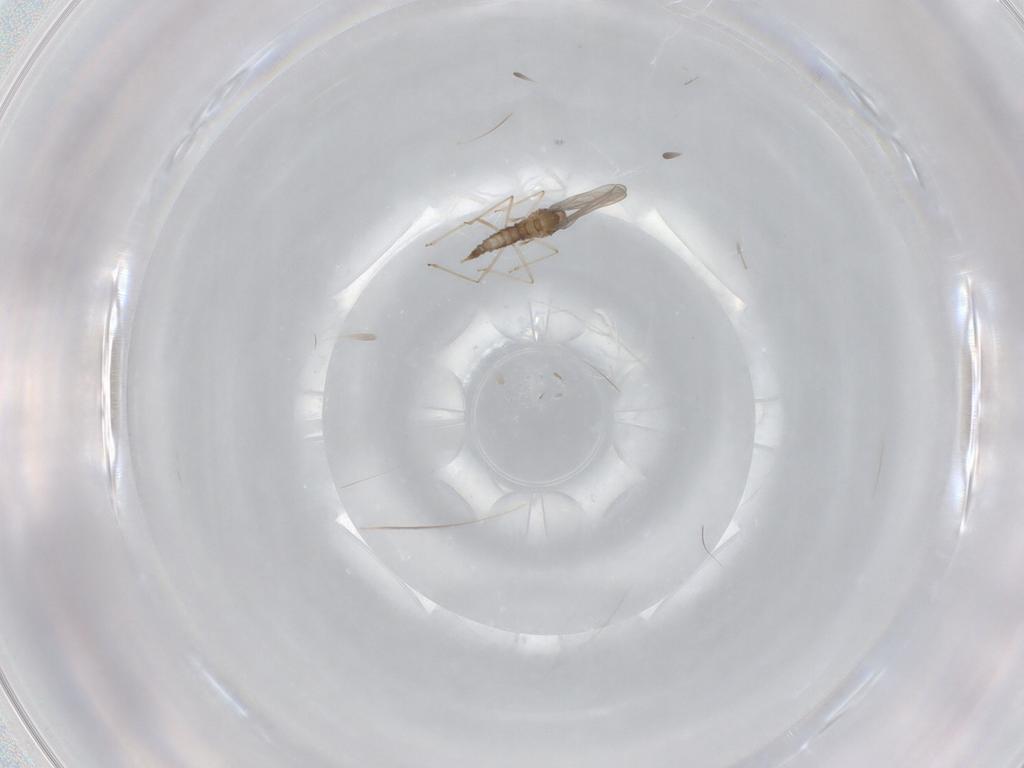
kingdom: Animalia
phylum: Arthropoda
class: Insecta
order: Diptera
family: Cecidomyiidae
